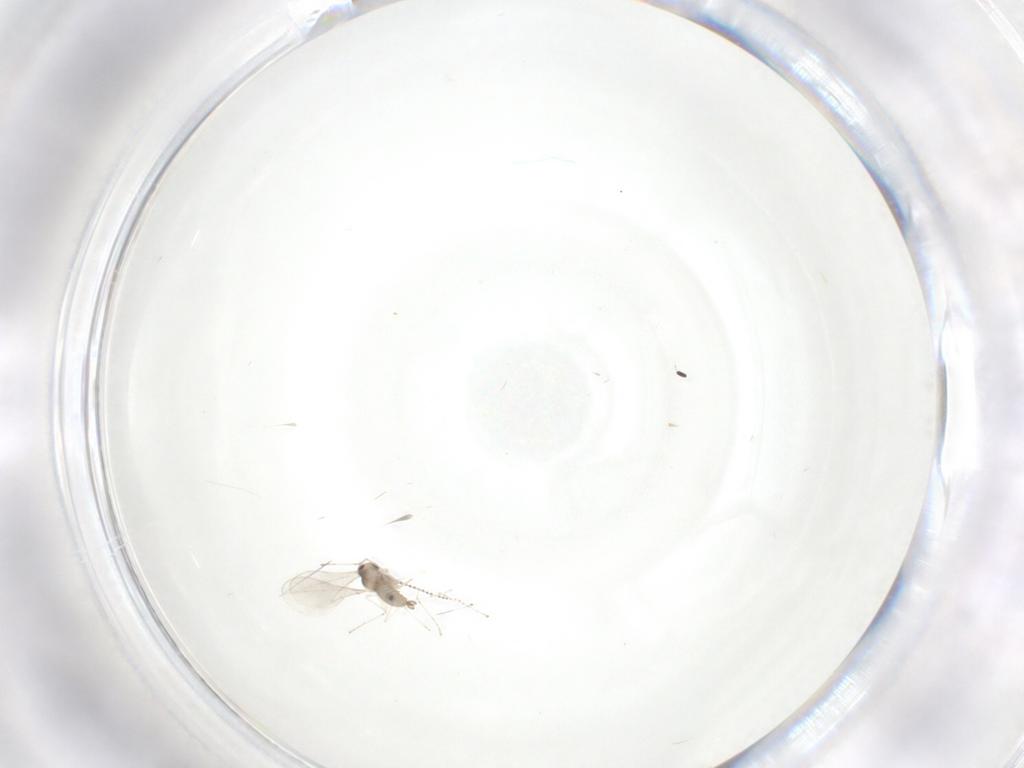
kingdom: Animalia
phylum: Arthropoda
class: Insecta
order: Diptera
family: Cecidomyiidae
